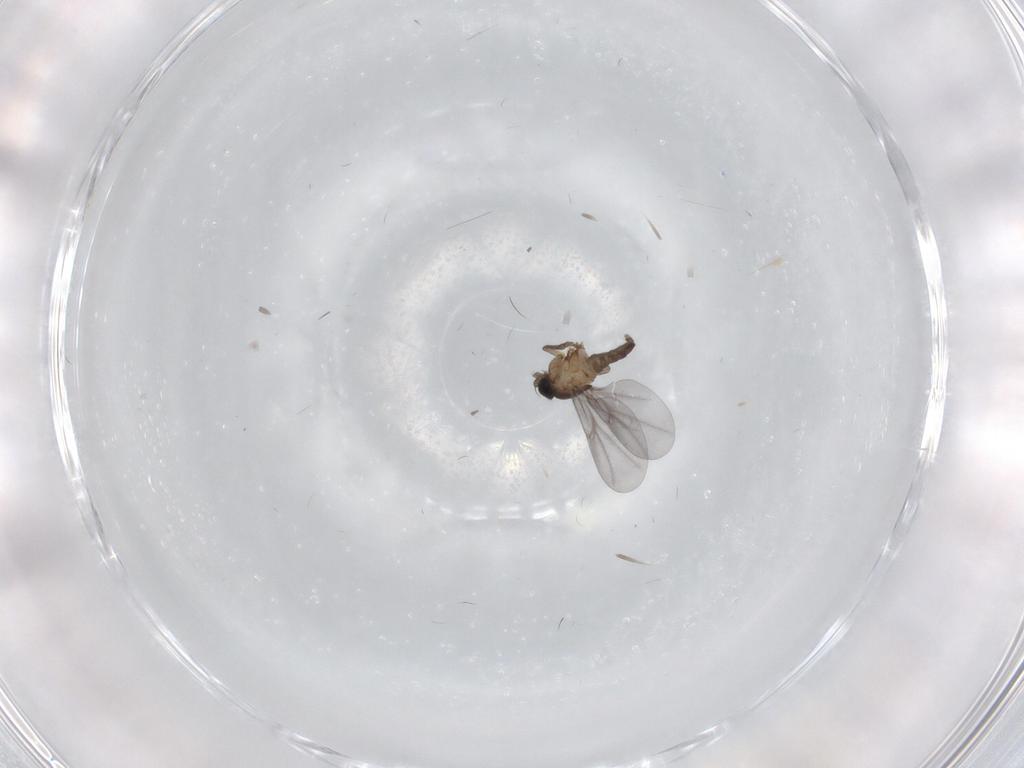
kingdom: Animalia
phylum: Arthropoda
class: Insecta
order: Diptera
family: Phoridae
